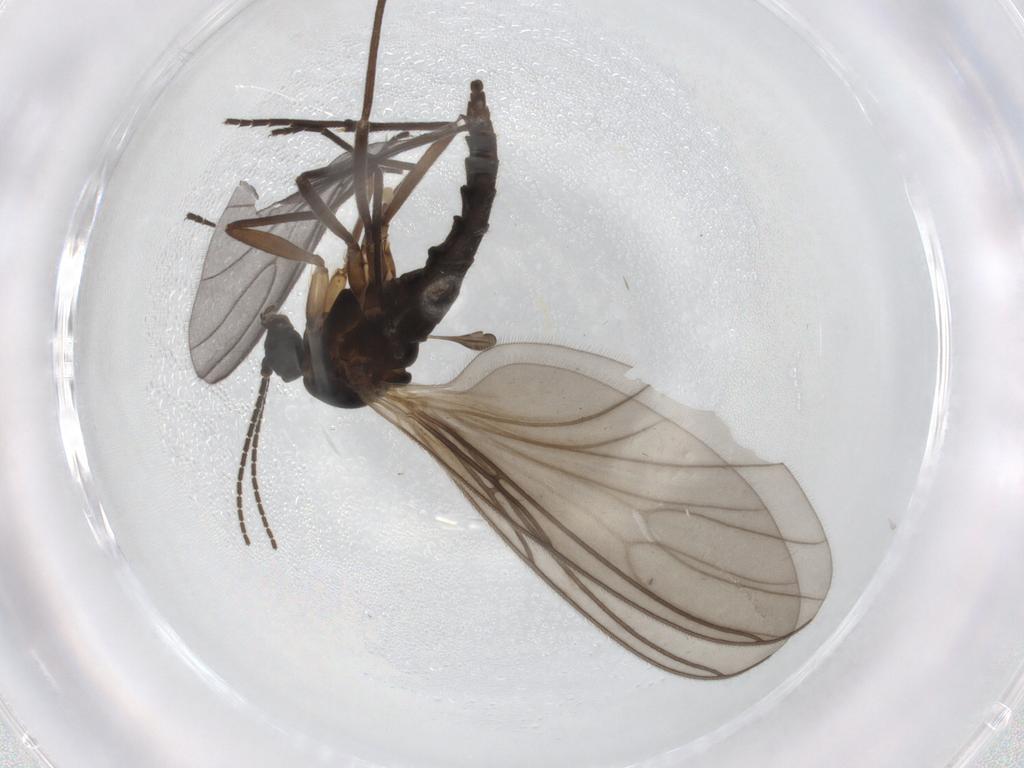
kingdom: Animalia
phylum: Arthropoda
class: Insecta
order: Diptera
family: Sciaridae
